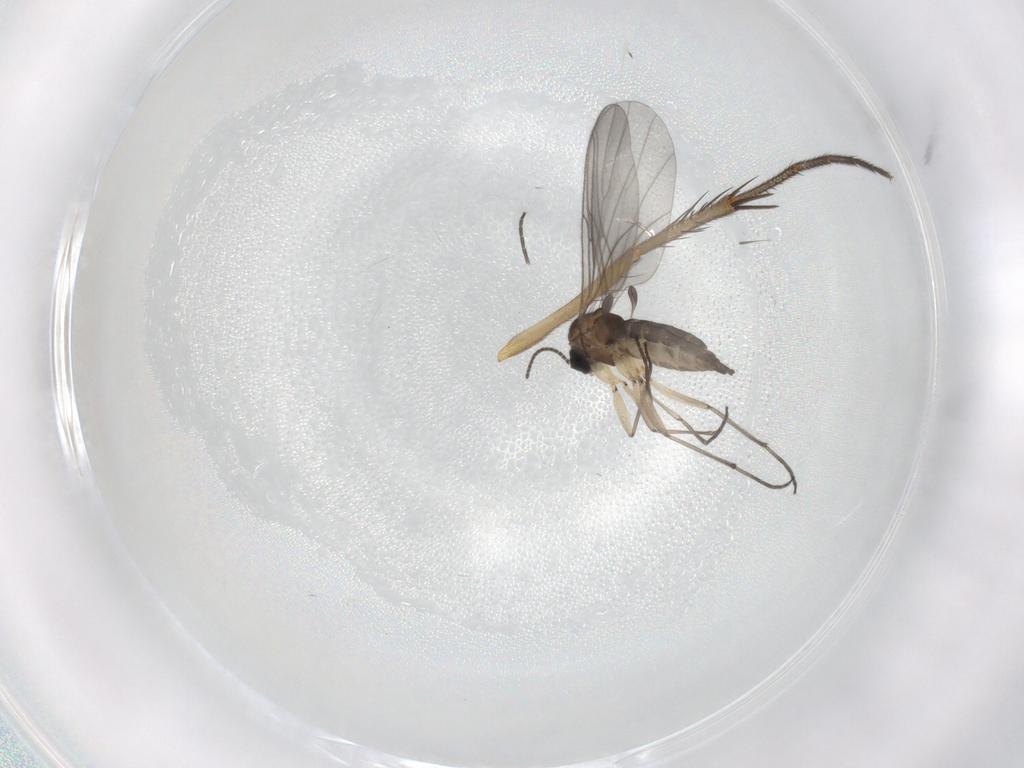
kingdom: Animalia
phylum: Arthropoda
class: Insecta
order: Diptera
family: Sciaridae
